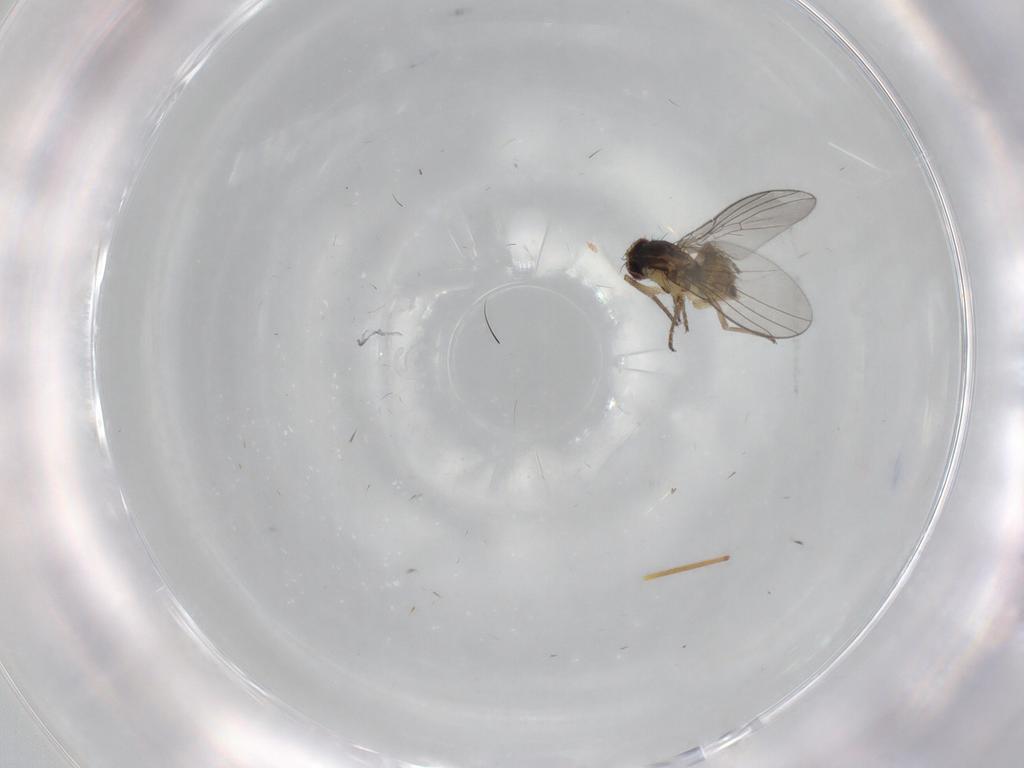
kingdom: Animalia
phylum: Arthropoda
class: Insecta
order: Diptera
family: Agromyzidae
